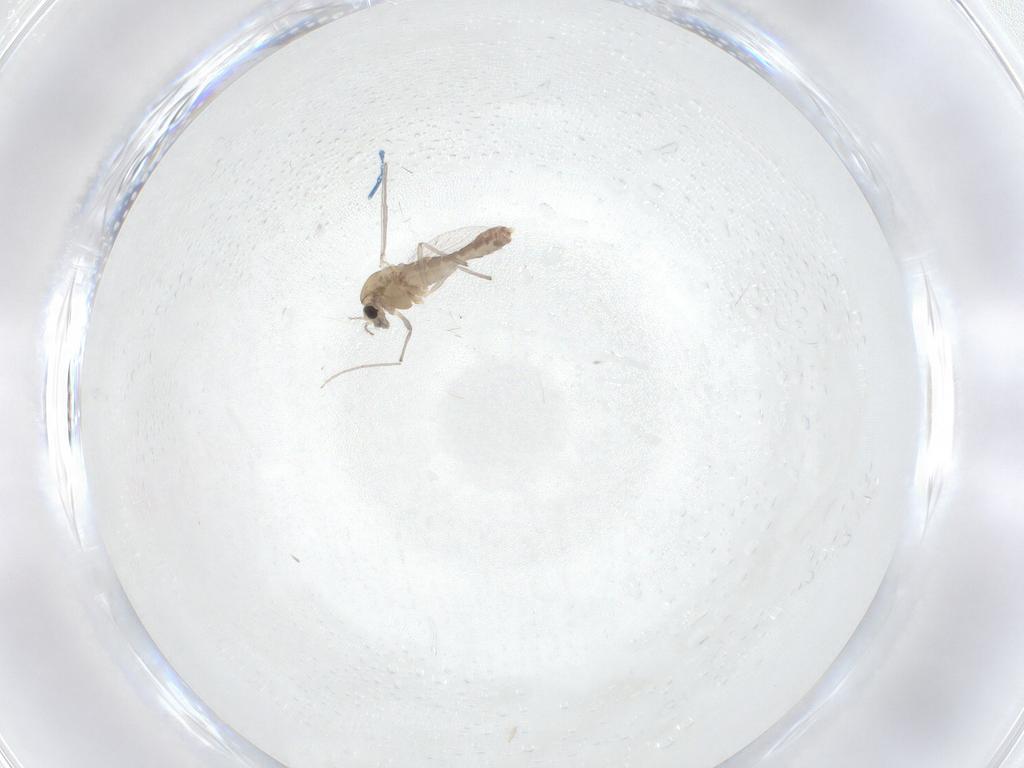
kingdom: Animalia
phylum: Arthropoda
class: Insecta
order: Diptera
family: Chironomidae
